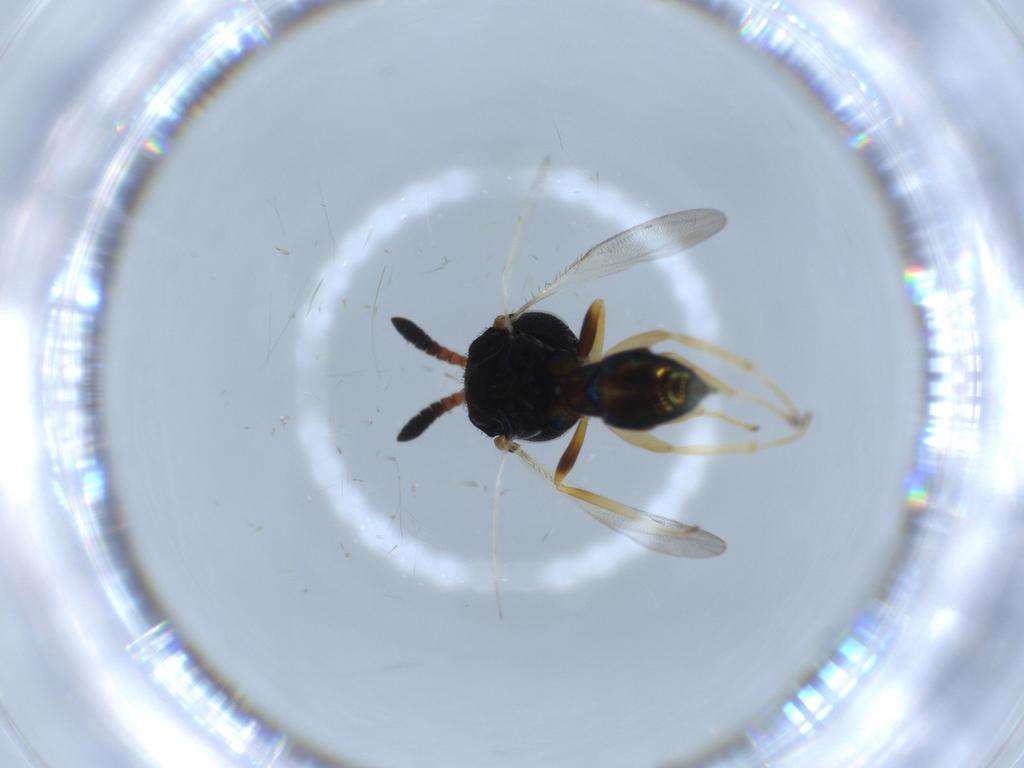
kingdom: Animalia
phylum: Arthropoda
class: Insecta
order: Hymenoptera
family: Pteromalidae
